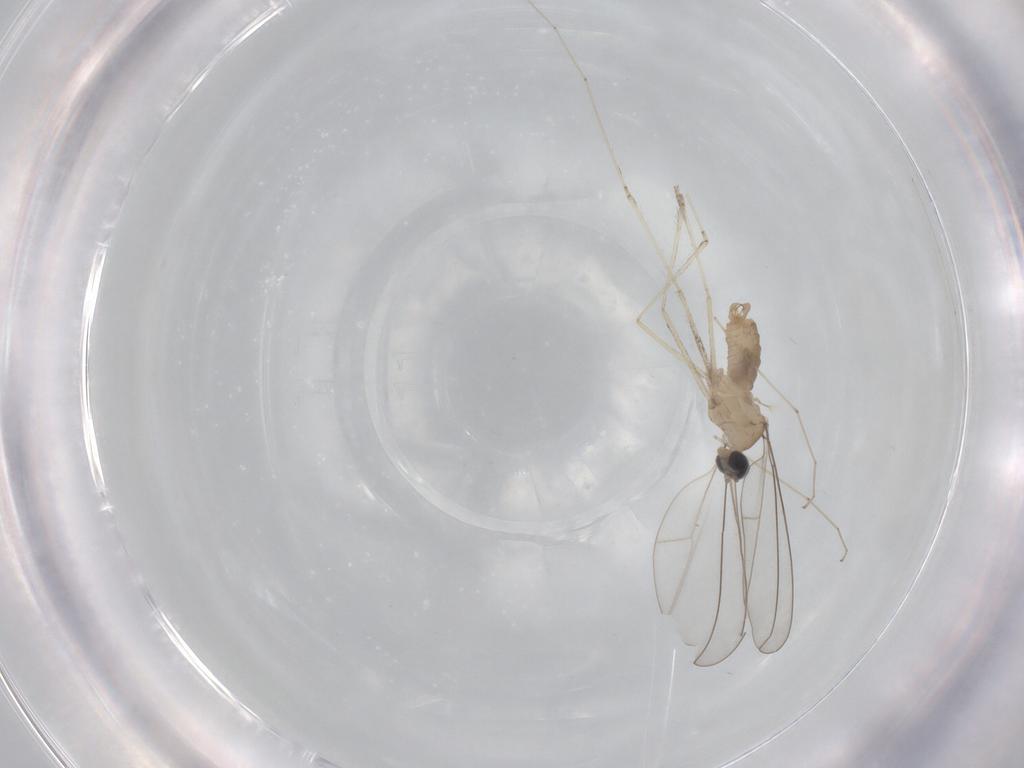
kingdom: Animalia
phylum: Arthropoda
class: Insecta
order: Diptera
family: Cecidomyiidae
